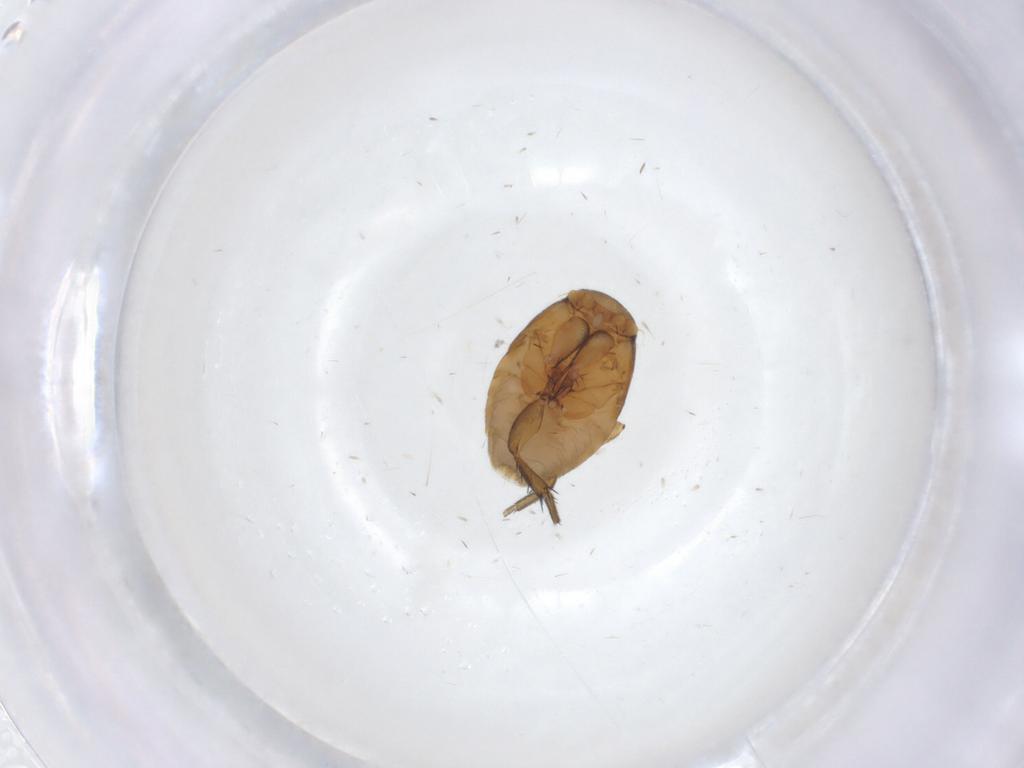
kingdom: Animalia
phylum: Arthropoda
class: Insecta
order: Diptera
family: Phoridae
